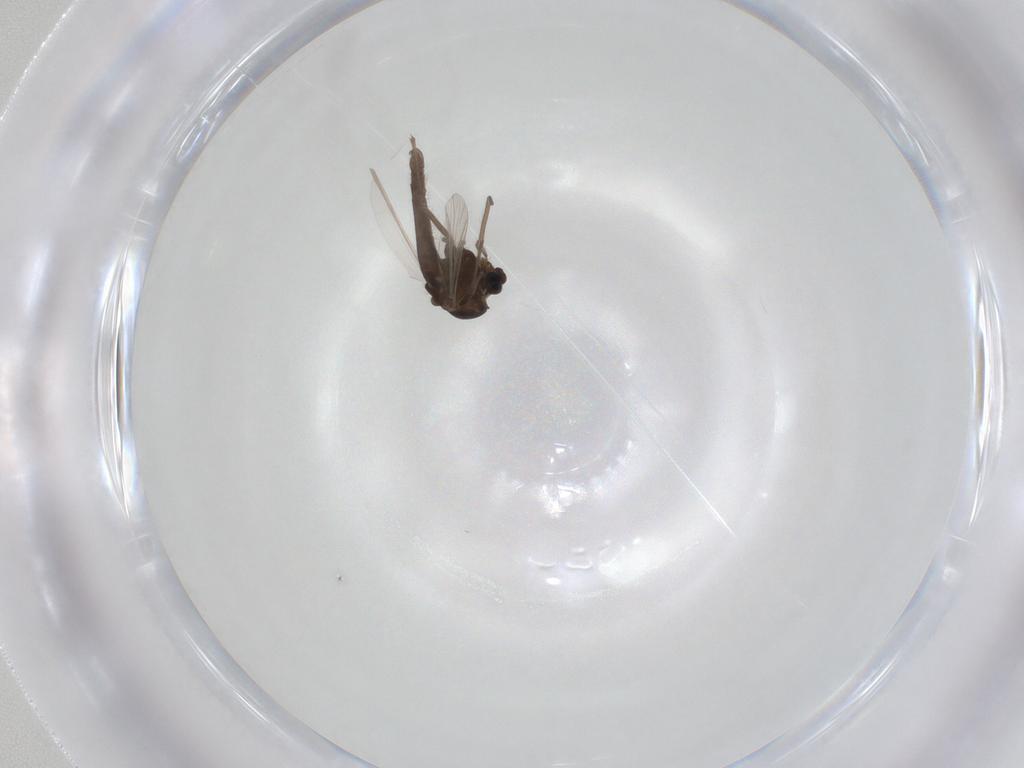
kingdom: Animalia
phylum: Arthropoda
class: Insecta
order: Diptera
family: Chironomidae
